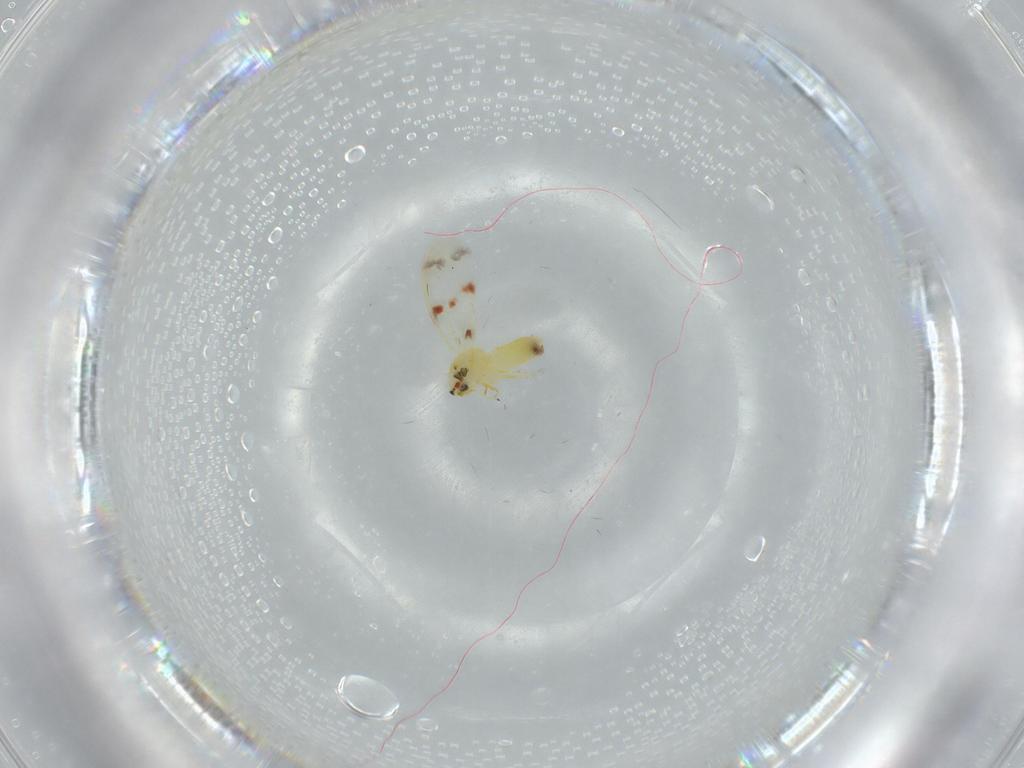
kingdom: Animalia
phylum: Arthropoda
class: Insecta
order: Hemiptera
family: Aleyrodidae
